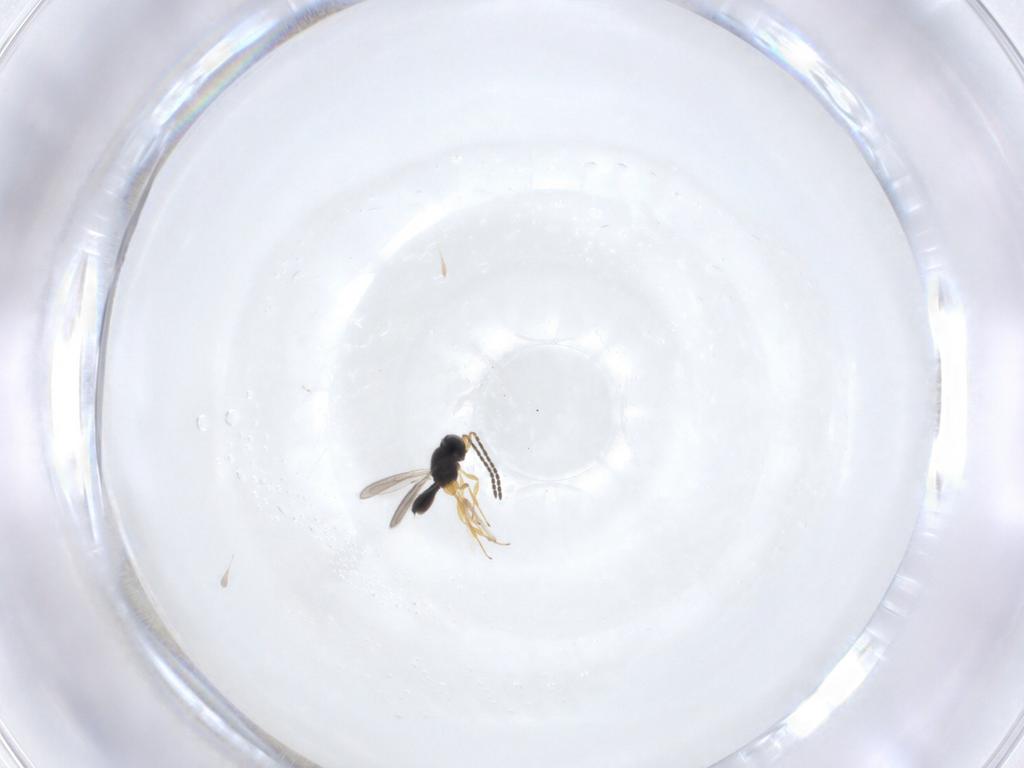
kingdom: Animalia
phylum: Arthropoda
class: Insecta
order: Hymenoptera
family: Scelionidae
